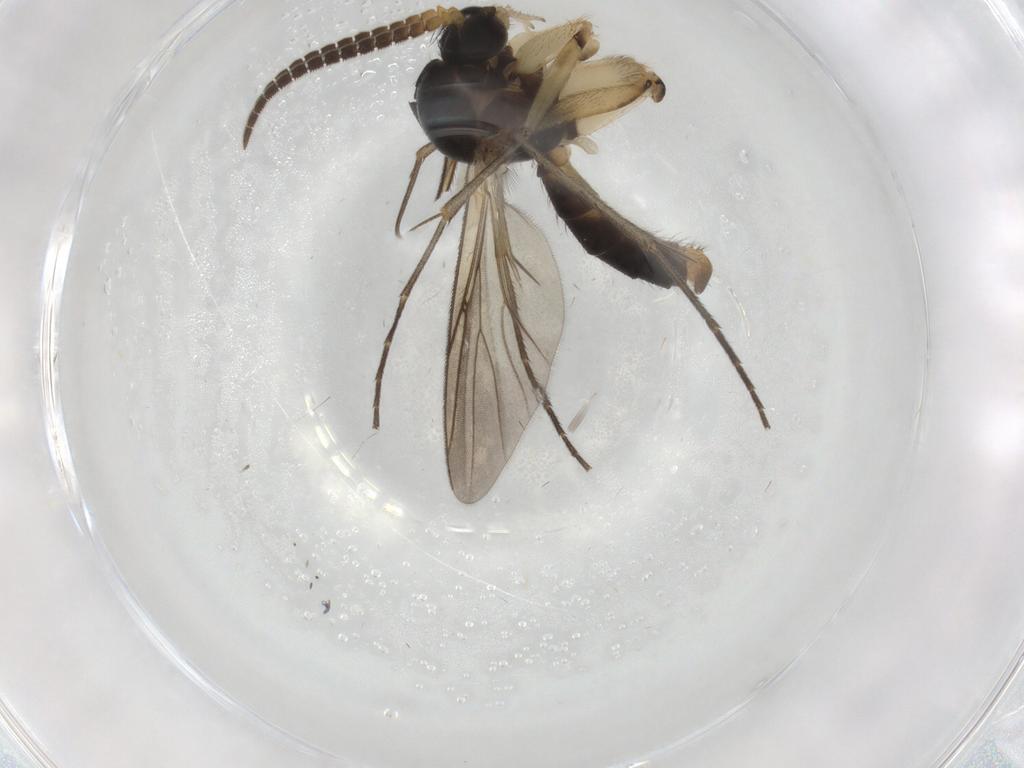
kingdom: Animalia
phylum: Arthropoda
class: Insecta
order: Diptera
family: Mycetophilidae
